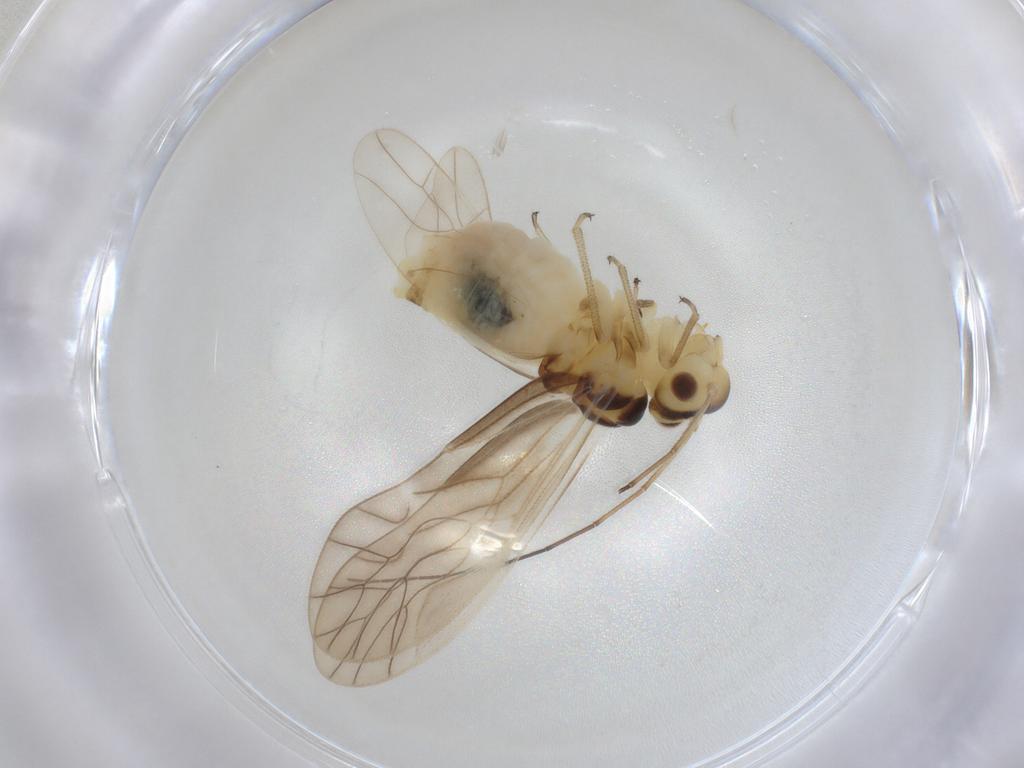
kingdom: Animalia
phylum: Arthropoda
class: Insecta
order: Psocodea
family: Caeciliusidae
